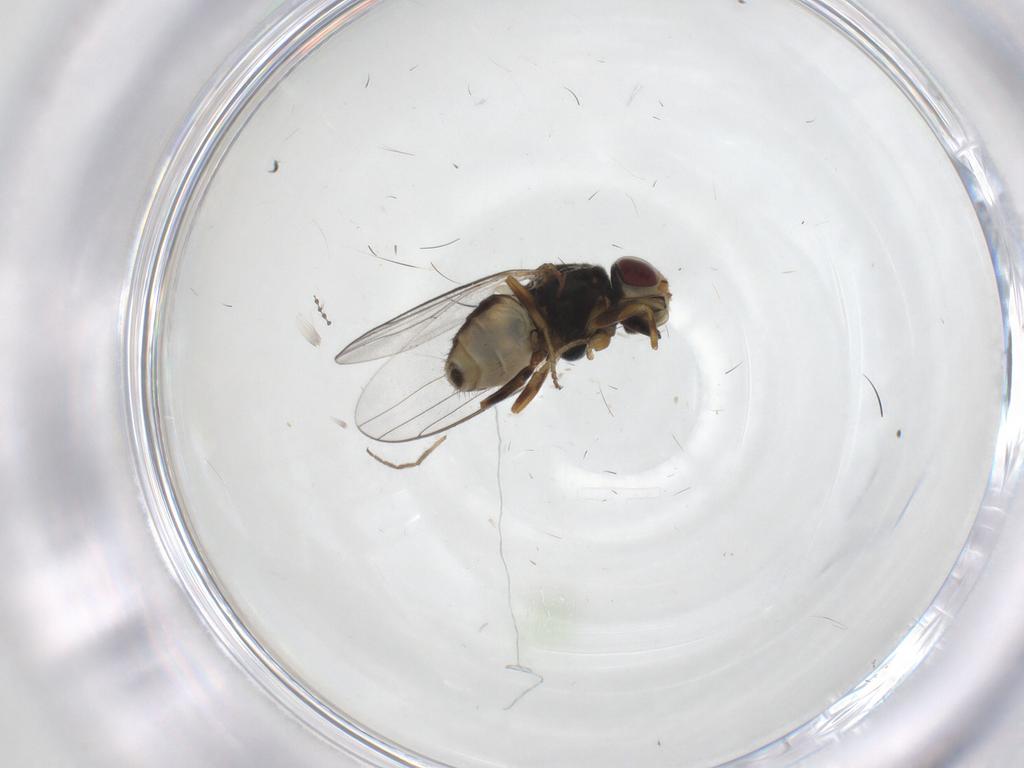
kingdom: Animalia
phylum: Arthropoda
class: Insecta
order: Diptera
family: Chloropidae
